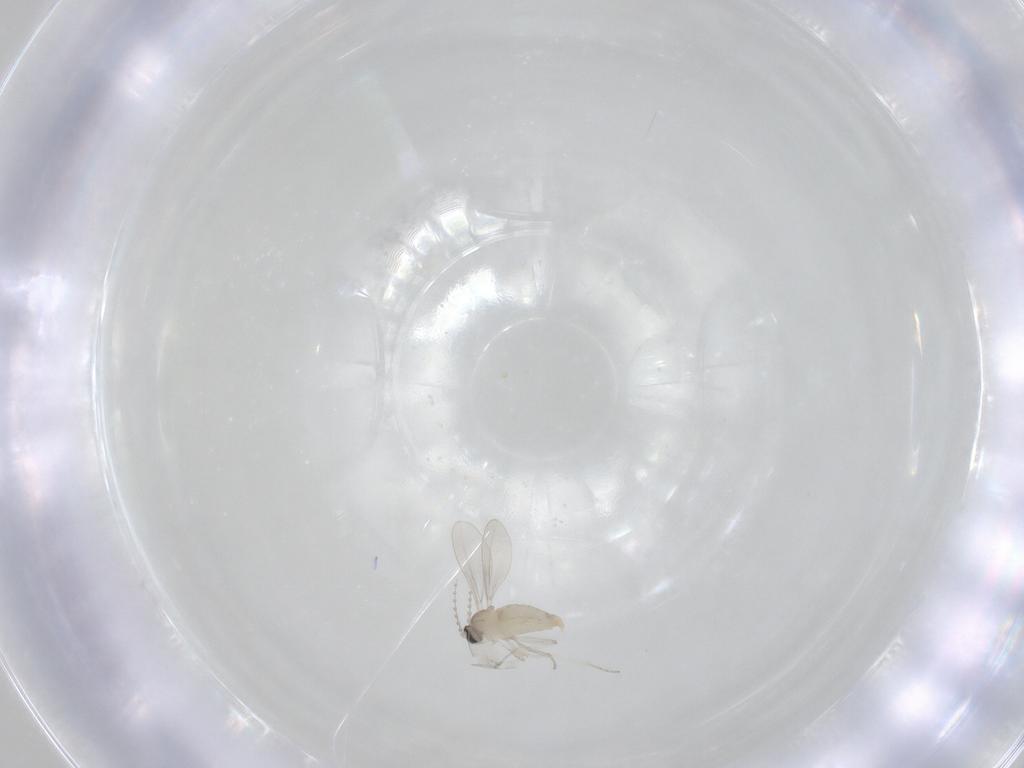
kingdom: Animalia
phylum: Arthropoda
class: Insecta
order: Diptera
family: Cecidomyiidae
